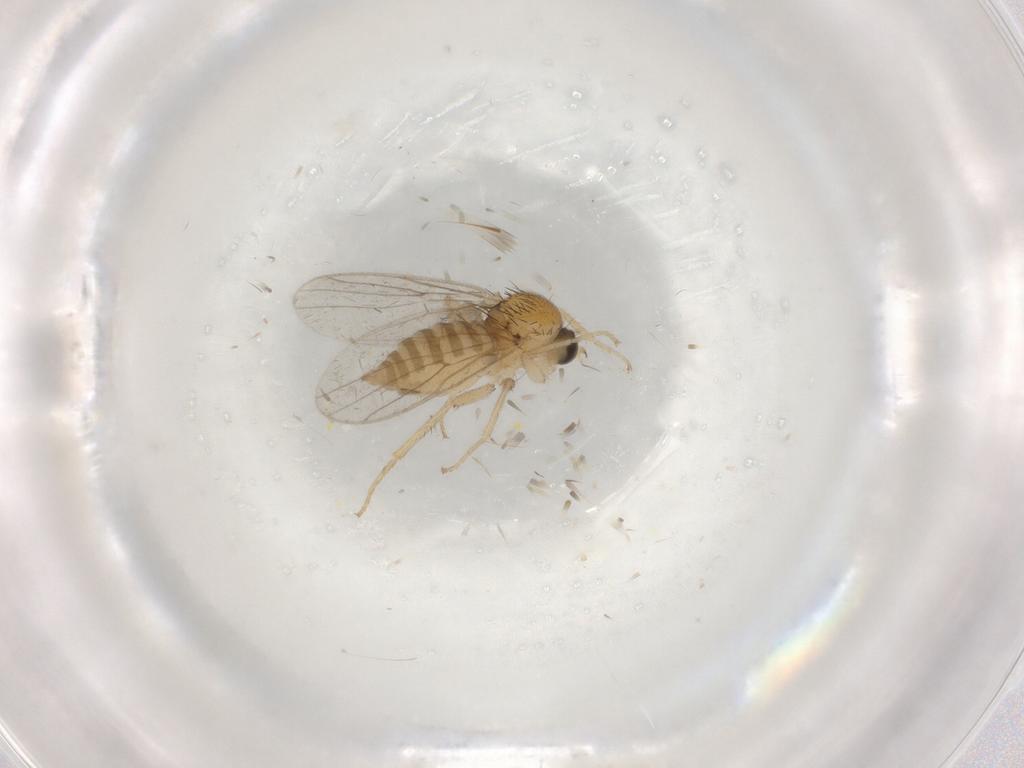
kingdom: Animalia
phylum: Arthropoda
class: Insecta
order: Diptera
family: Hybotidae
